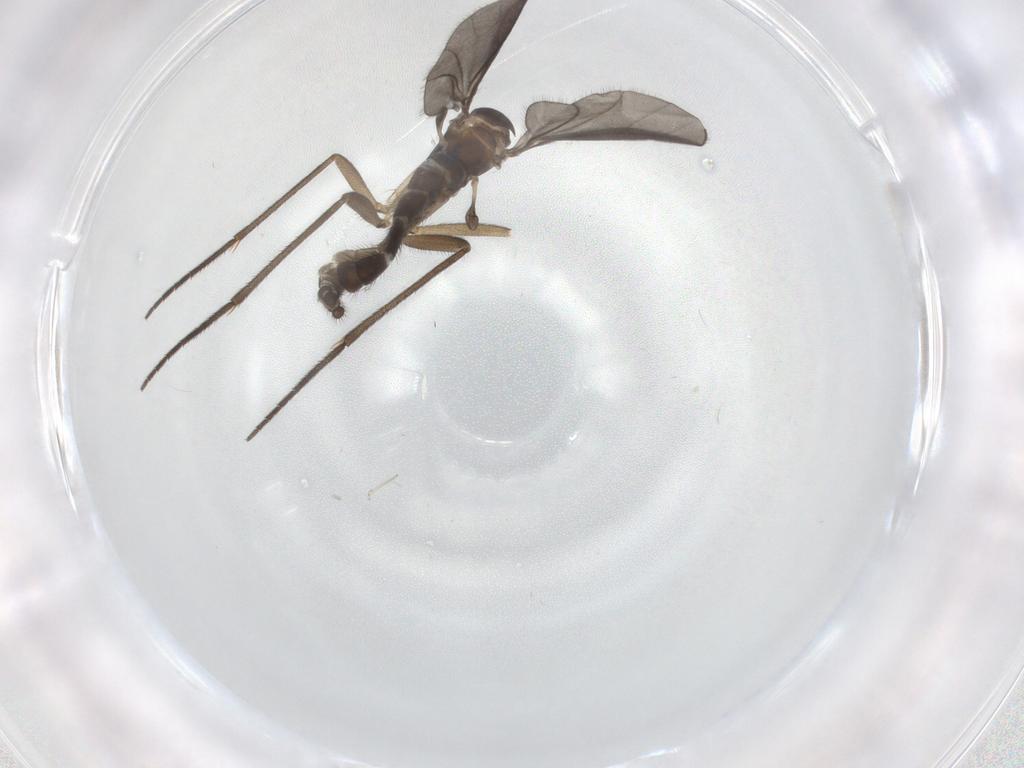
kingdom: Animalia
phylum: Arthropoda
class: Insecta
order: Diptera
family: Sciaridae
